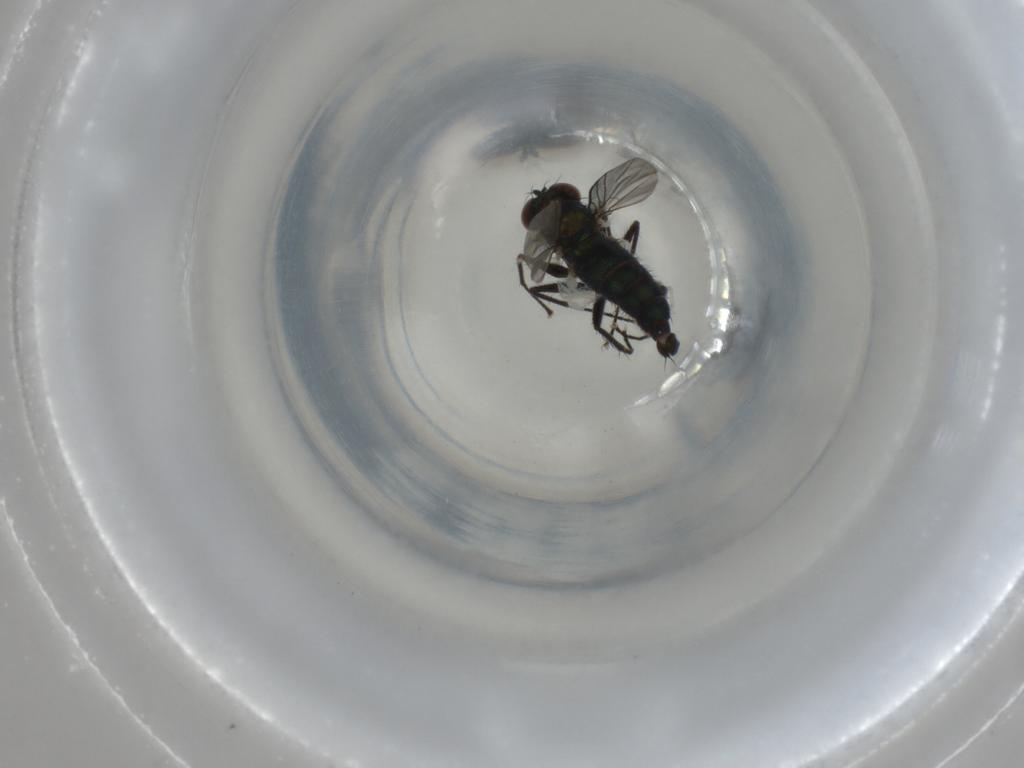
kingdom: Animalia
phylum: Arthropoda
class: Insecta
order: Diptera
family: Dolichopodidae
